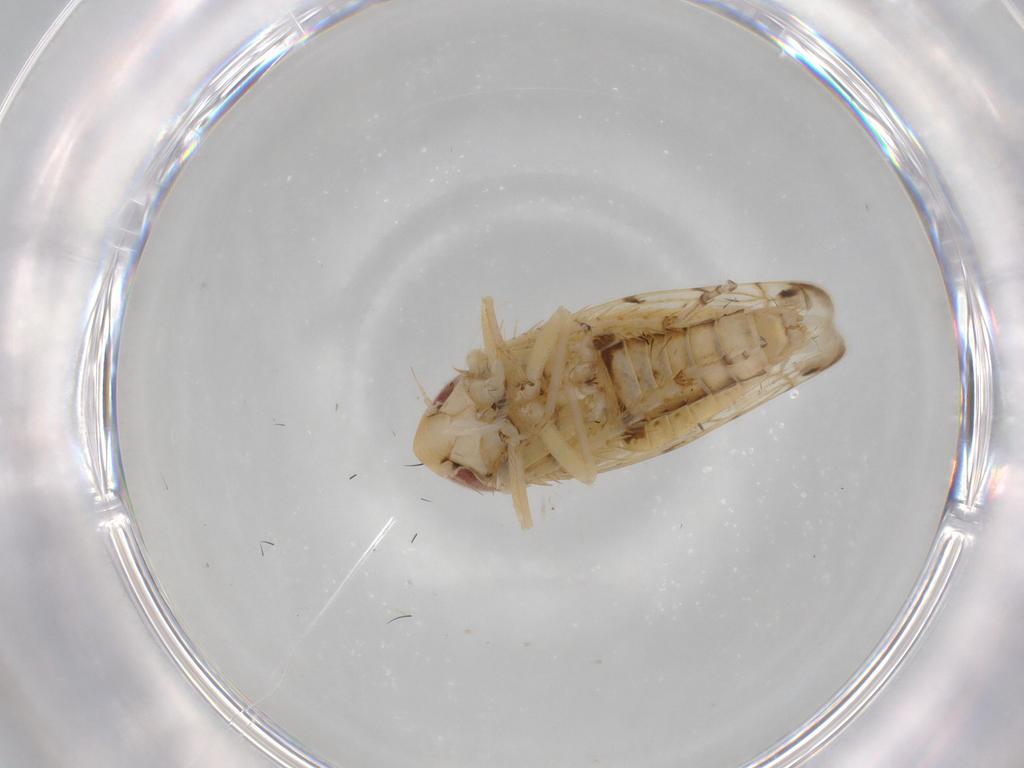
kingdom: Animalia
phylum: Arthropoda
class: Insecta
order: Hemiptera
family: Cicadellidae
